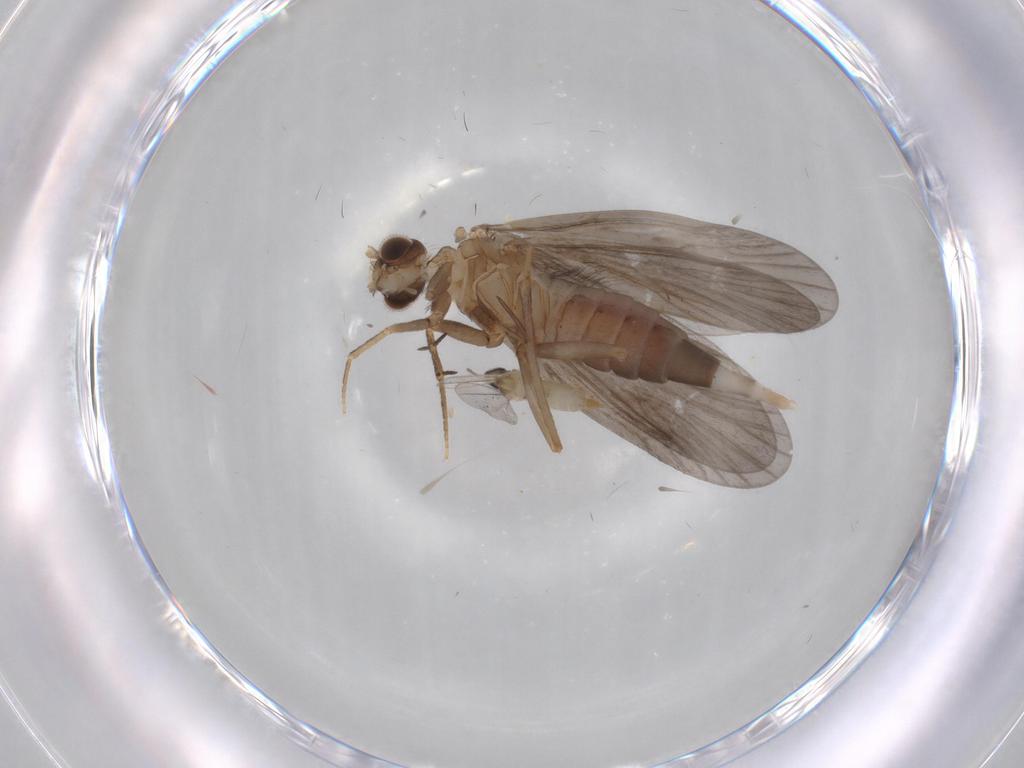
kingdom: Animalia
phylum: Arthropoda
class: Insecta
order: Trichoptera
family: Philopotamidae
